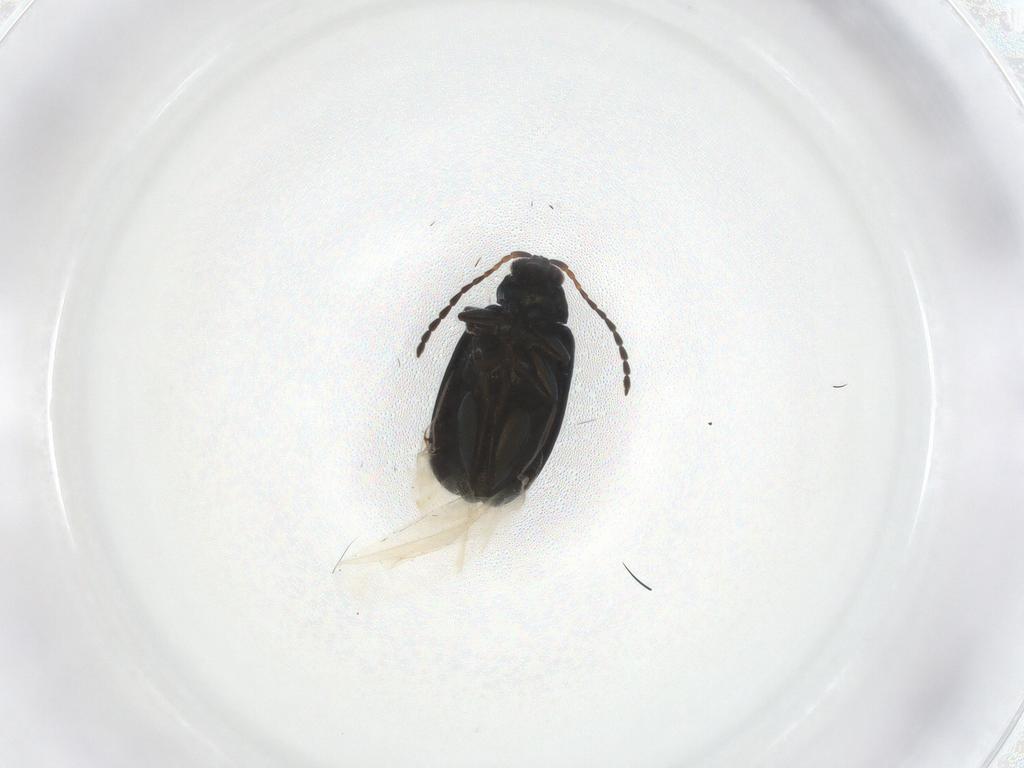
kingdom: Animalia
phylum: Arthropoda
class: Insecta
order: Coleoptera
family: Chrysomelidae
